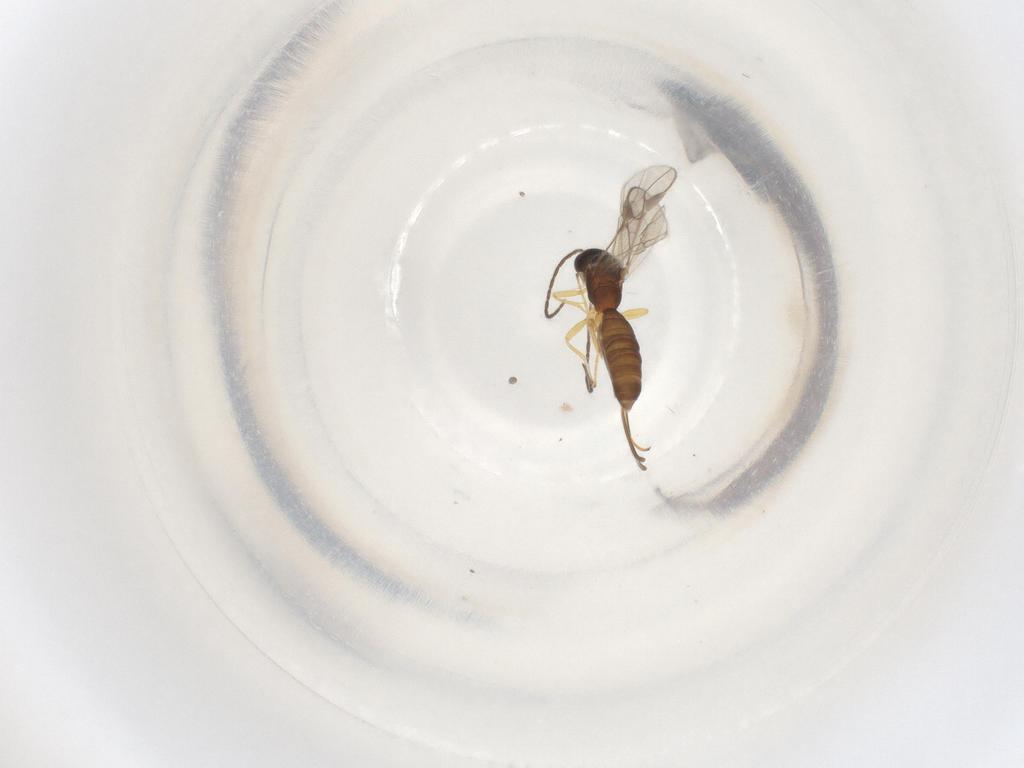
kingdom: Animalia
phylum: Arthropoda
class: Insecta
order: Hymenoptera
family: Braconidae
